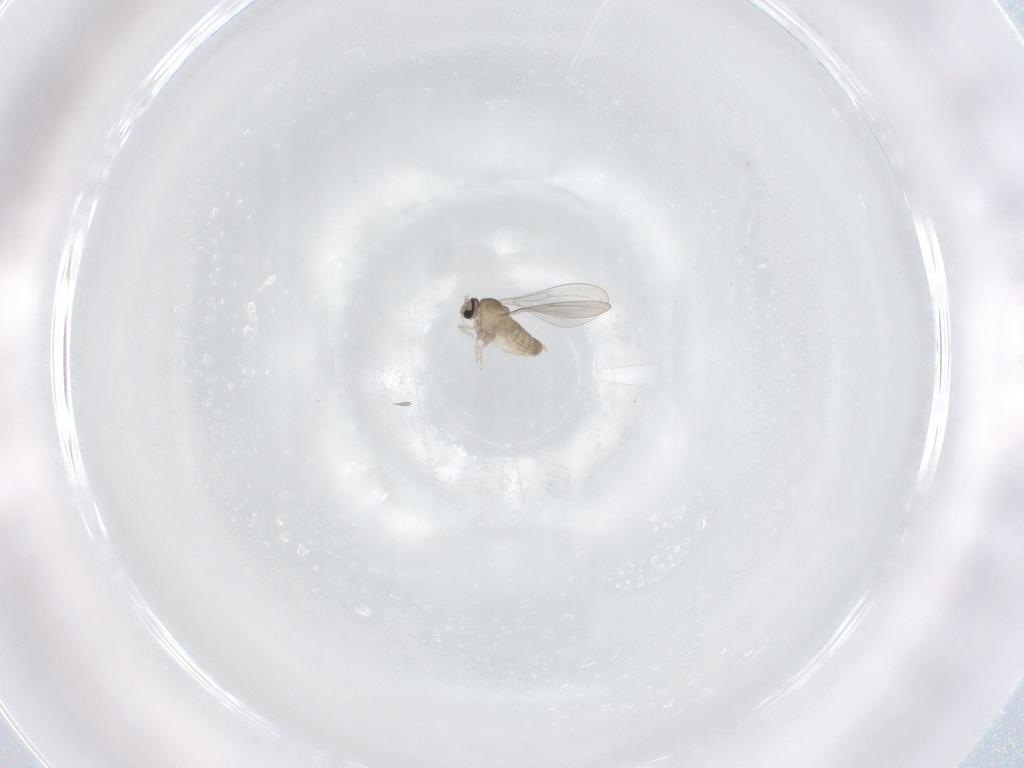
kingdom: Animalia
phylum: Arthropoda
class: Insecta
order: Diptera
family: Cecidomyiidae
